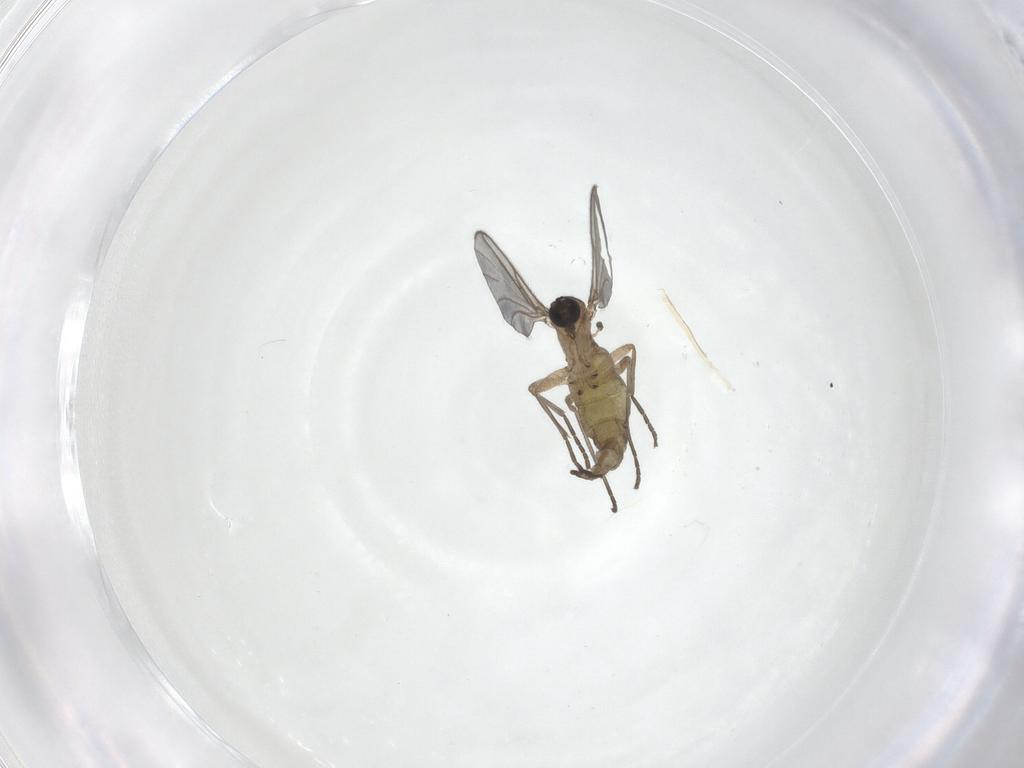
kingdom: Animalia
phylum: Arthropoda
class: Insecta
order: Diptera
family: Sciaridae
